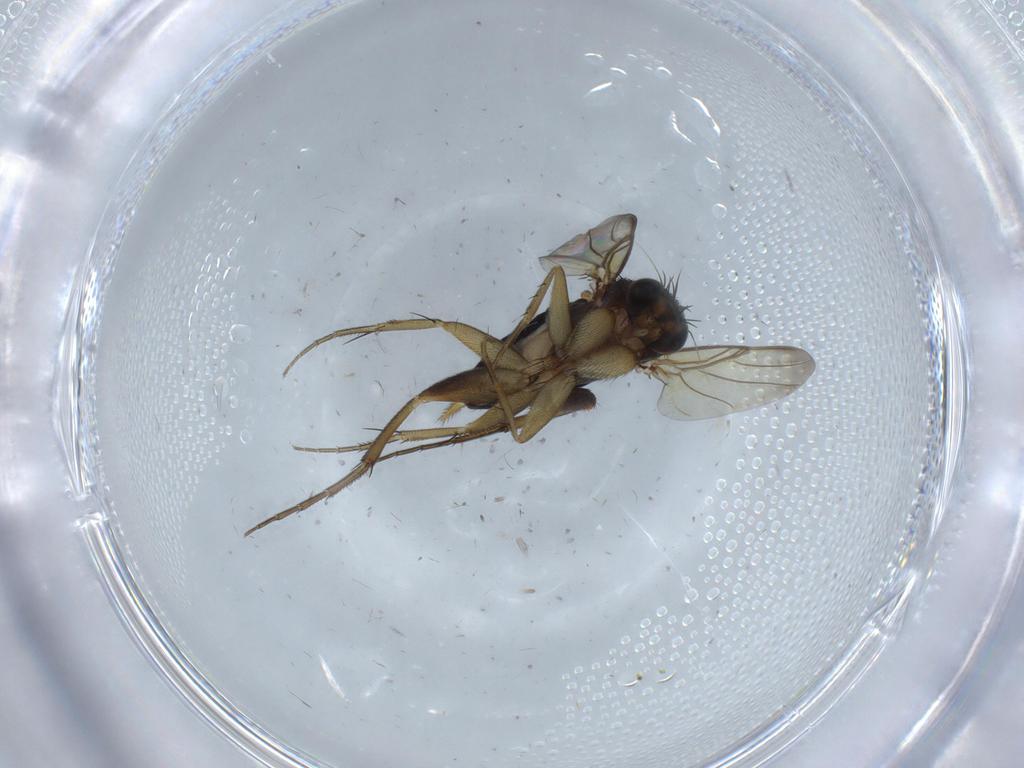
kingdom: Animalia
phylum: Arthropoda
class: Insecta
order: Diptera
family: Phoridae
